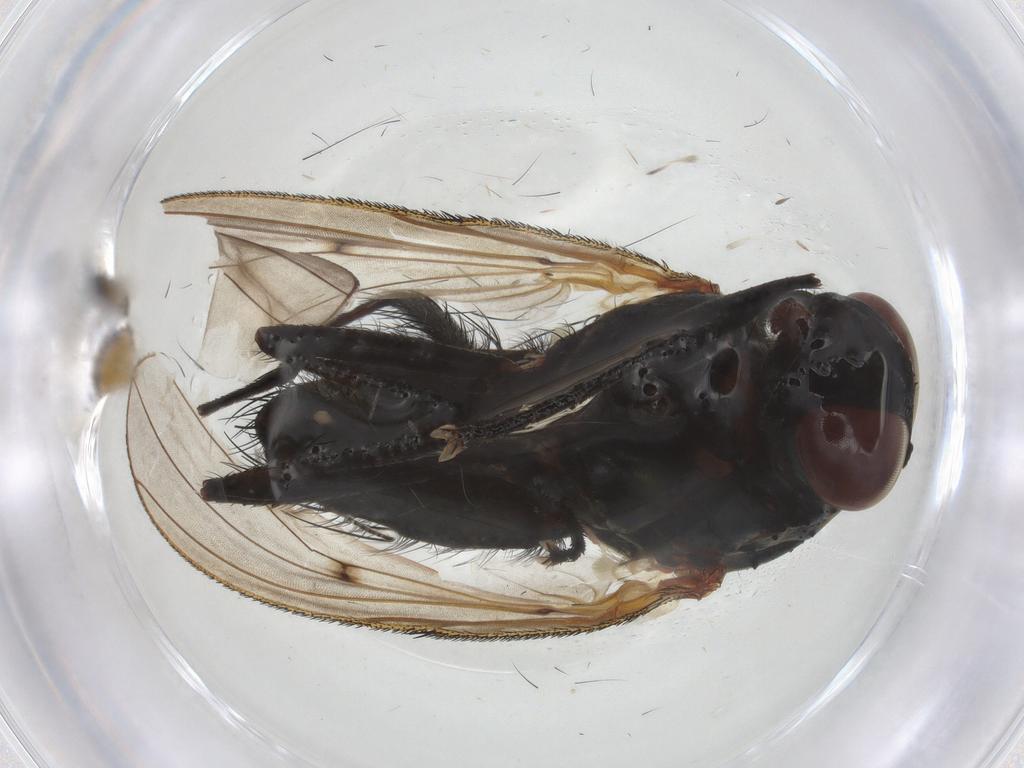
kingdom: Animalia
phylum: Arthropoda
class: Insecta
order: Diptera
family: Anthomyiidae
